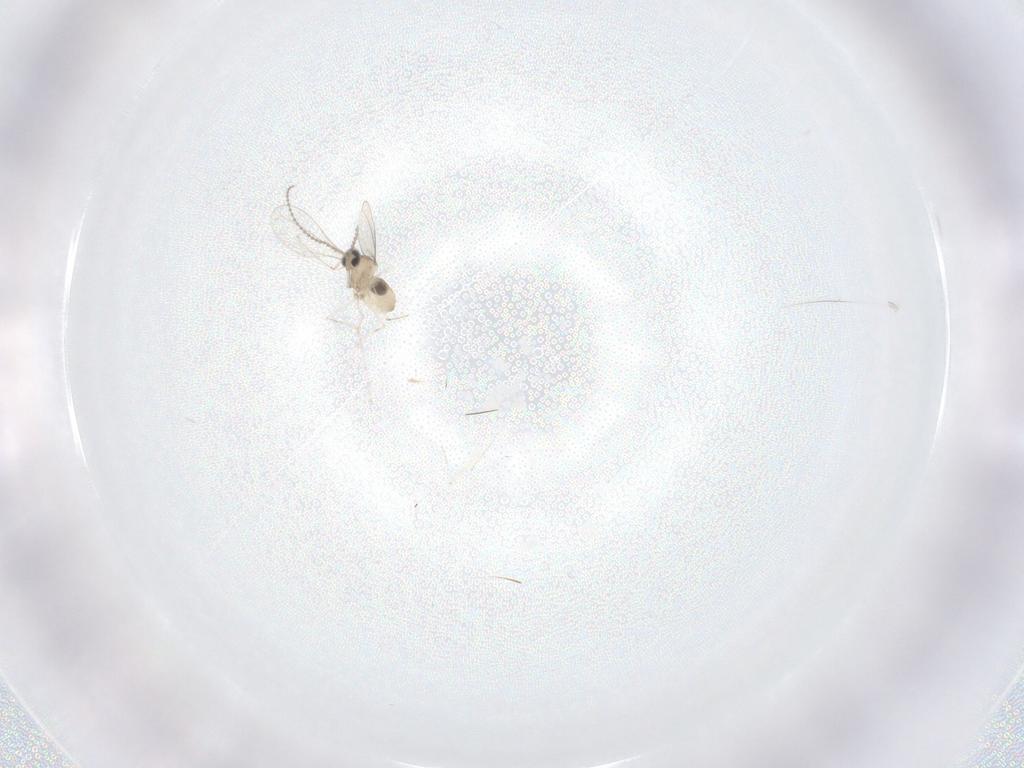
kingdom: Animalia
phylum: Arthropoda
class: Insecta
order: Diptera
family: Cecidomyiidae
